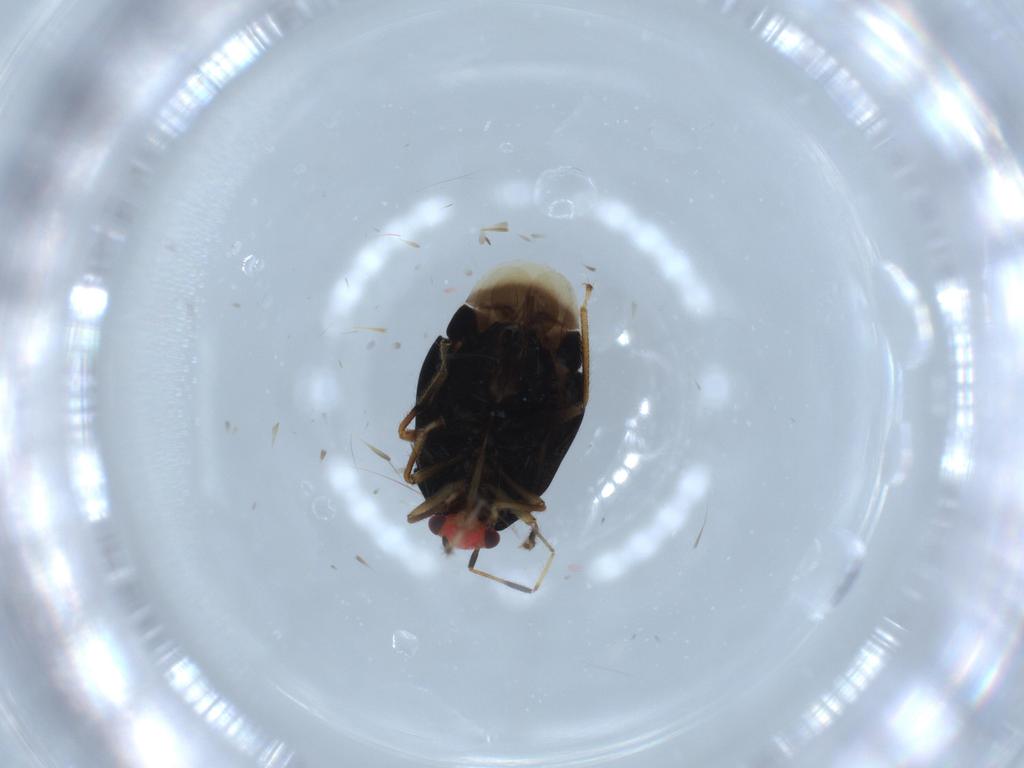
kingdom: Animalia
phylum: Arthropoda
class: Insecta
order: Hemiptera
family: Miridae
